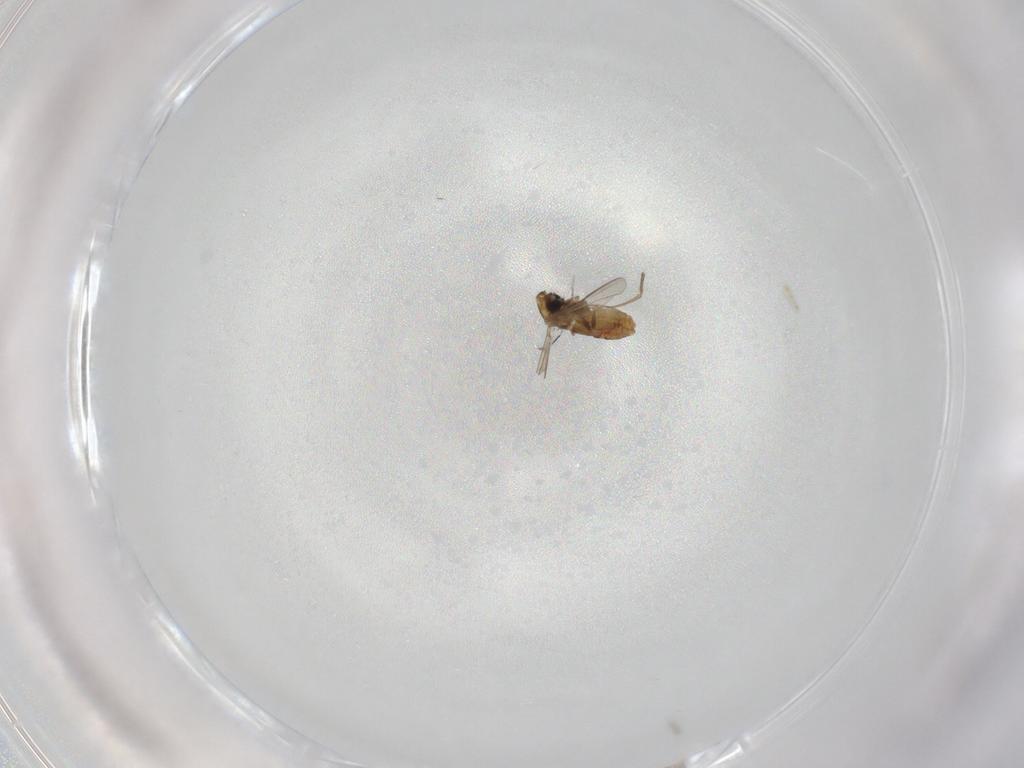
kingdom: Animalia
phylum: Arthropoda
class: Insecta
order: Diptera
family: Chironomidae
